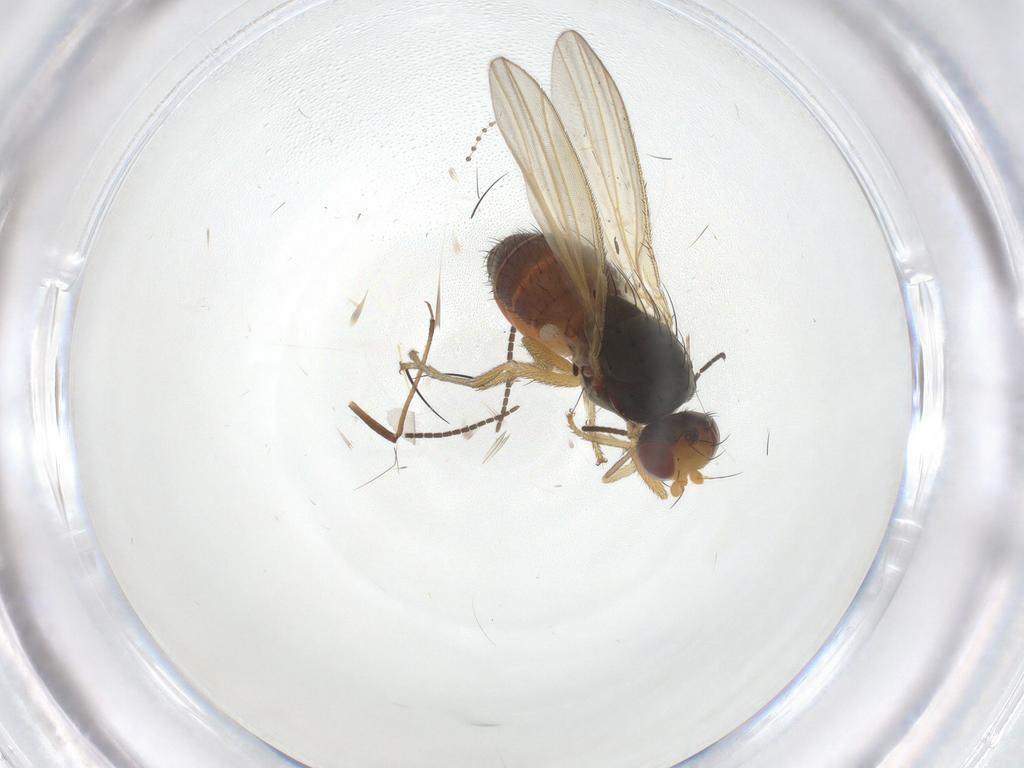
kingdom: Animalia
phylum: Arthropoda
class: Insecta
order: Diptera
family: Heleomyzidae
